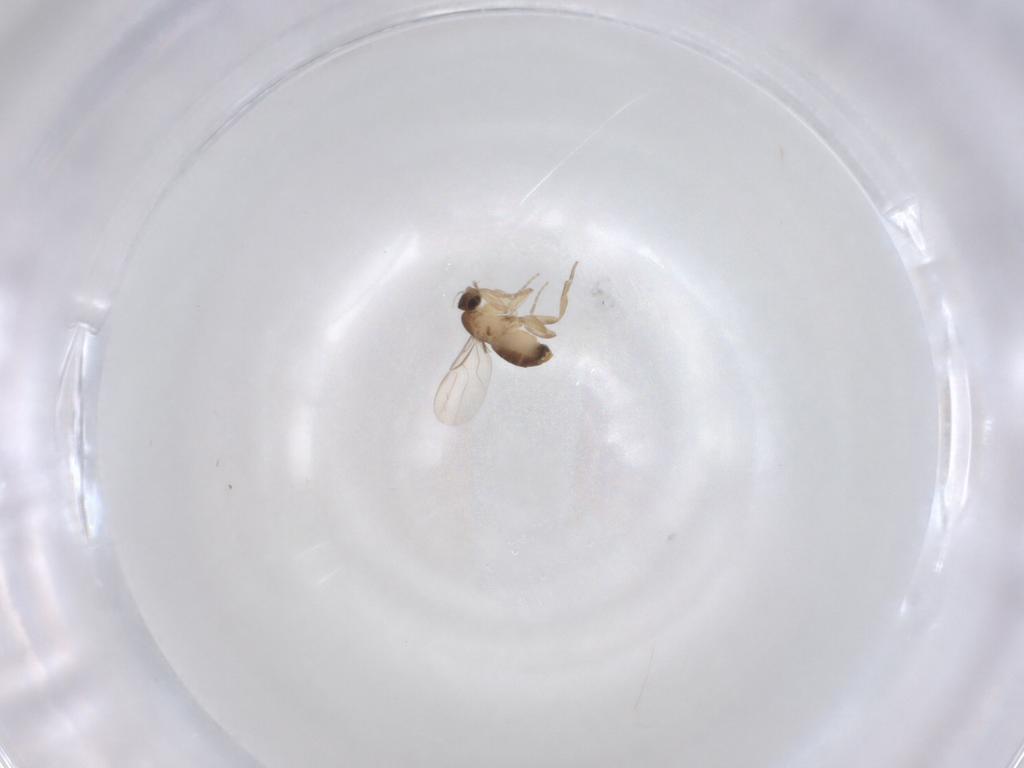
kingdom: Animalia
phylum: Arthropoda
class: Insecta
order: Diptera
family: Phoridae
